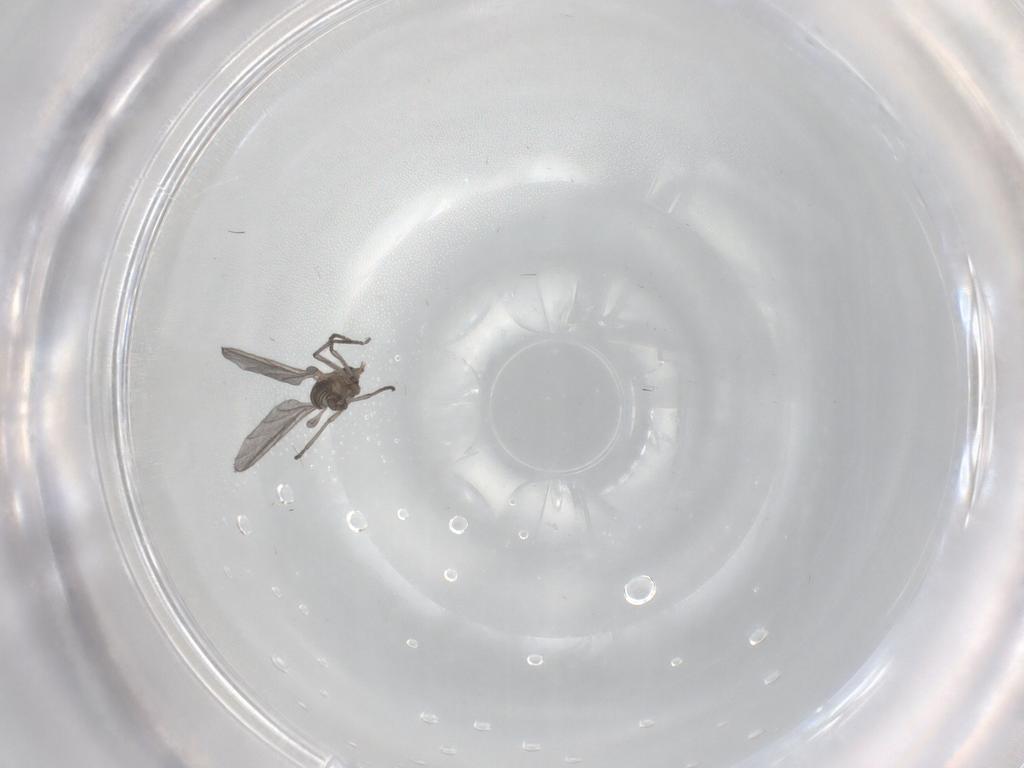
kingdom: Animalia
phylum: Arthropoda
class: Insecta
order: Diptera
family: Sciaridae
